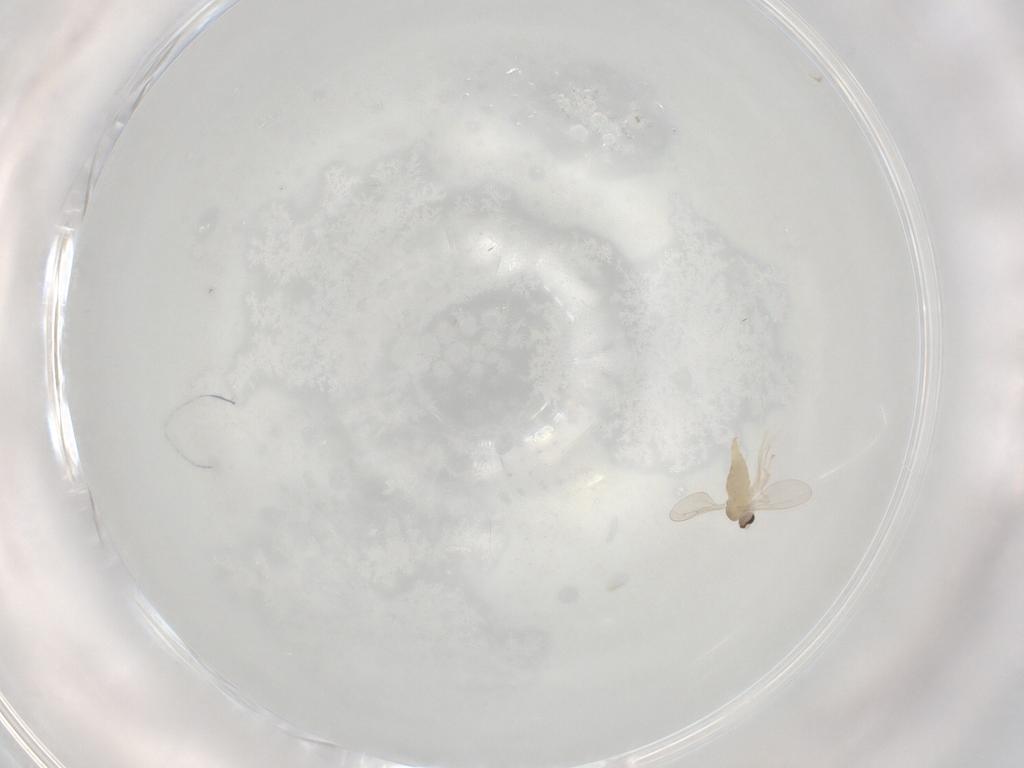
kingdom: Animalia
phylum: Arthropoda
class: Insecta
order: Diptera
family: Cecidomyiidae
